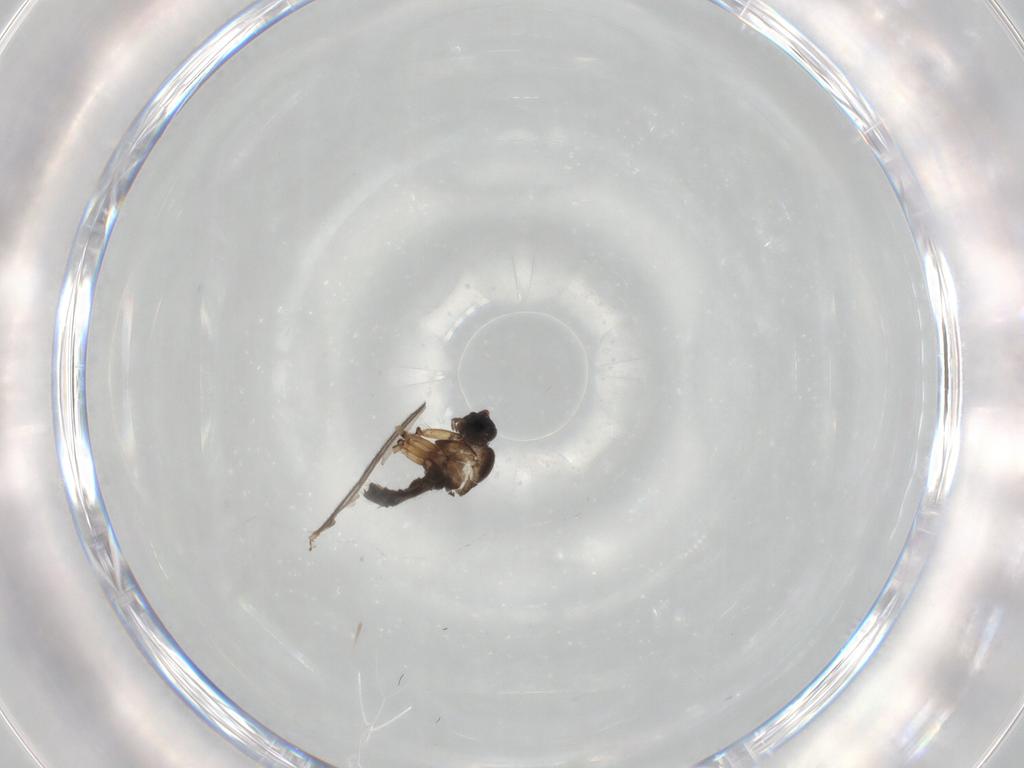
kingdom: Animalia
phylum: Arthropoda
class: Insecta
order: Diptera
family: Sciaridae
